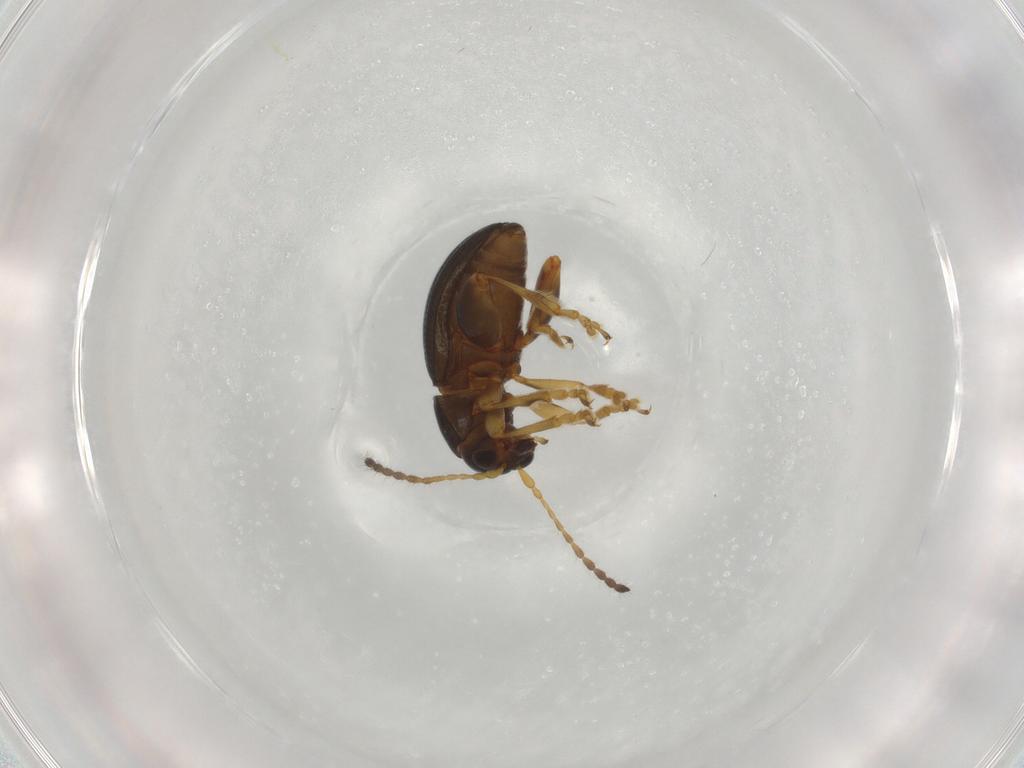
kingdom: Animalia
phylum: Arthropoda
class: Insecta
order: Coleoptera
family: Chrysomelidae
